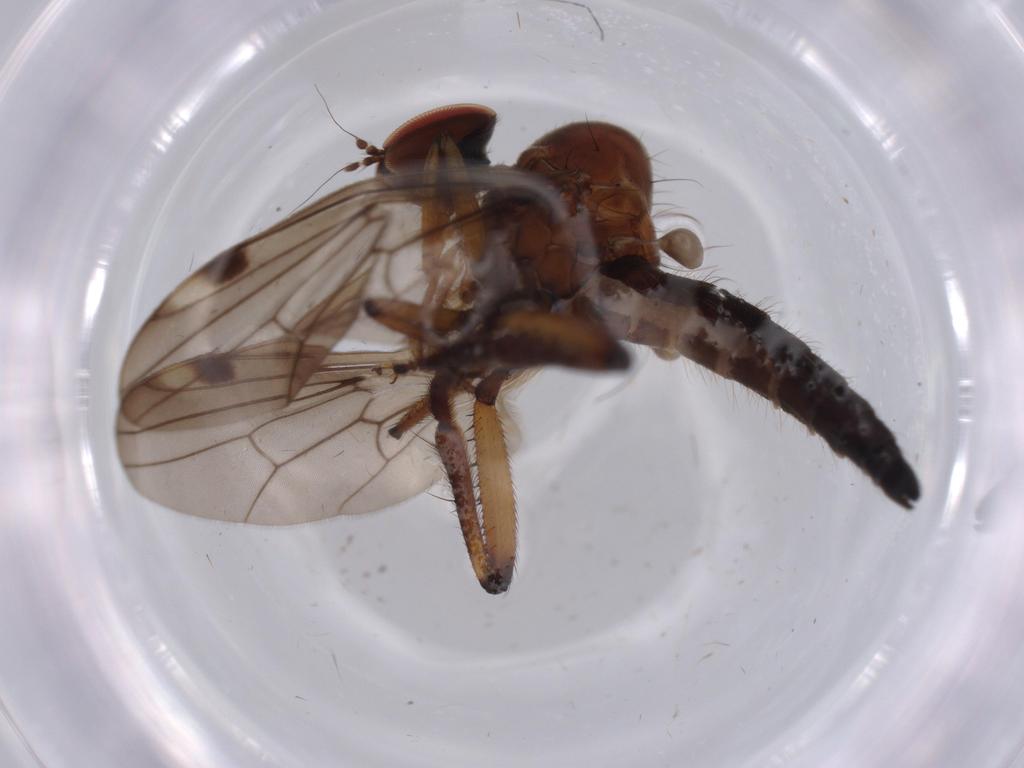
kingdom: Animalia
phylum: Arthropoda
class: Insecta
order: Diptera
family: Hybotidae
